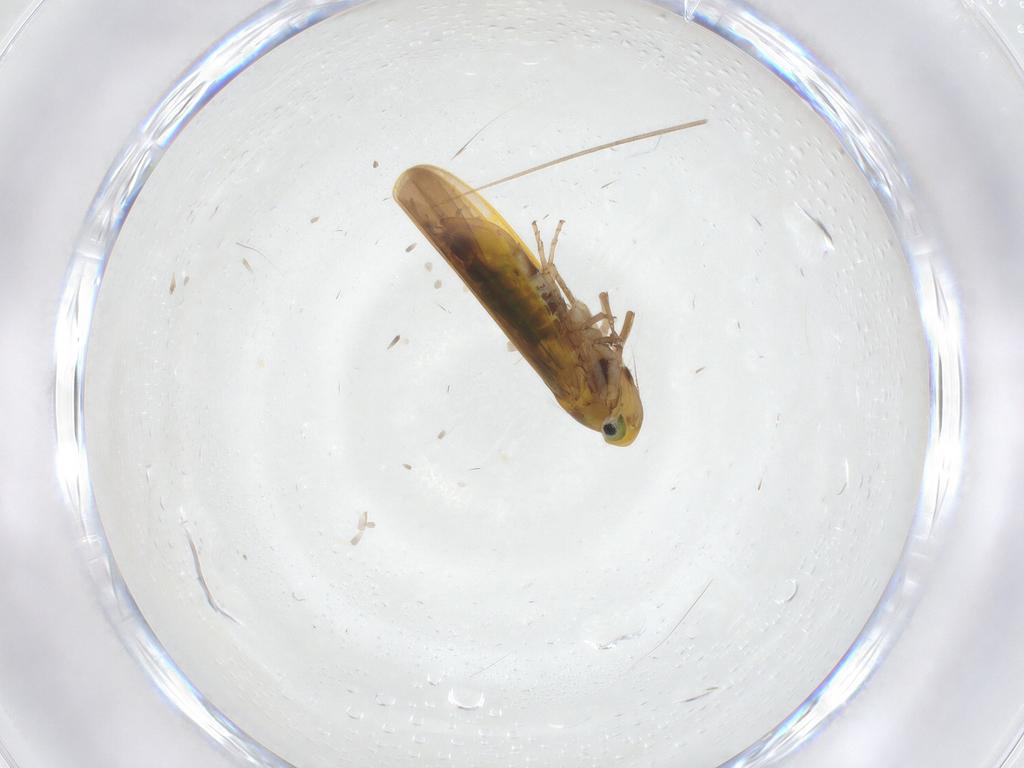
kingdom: Animalia
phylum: Arthropoda
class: Insecta
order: Hemiptera
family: Cicadellidae
